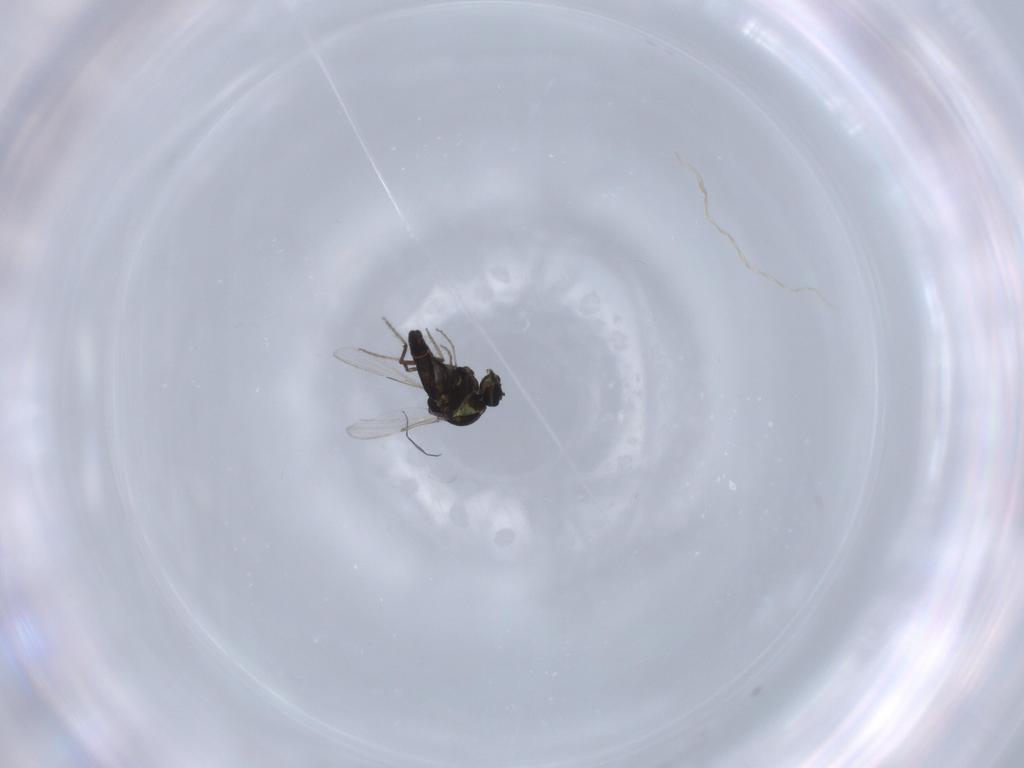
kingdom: Animalia
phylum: Arthropoda
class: Insecta
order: Diptera
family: Ceratopogonidae
